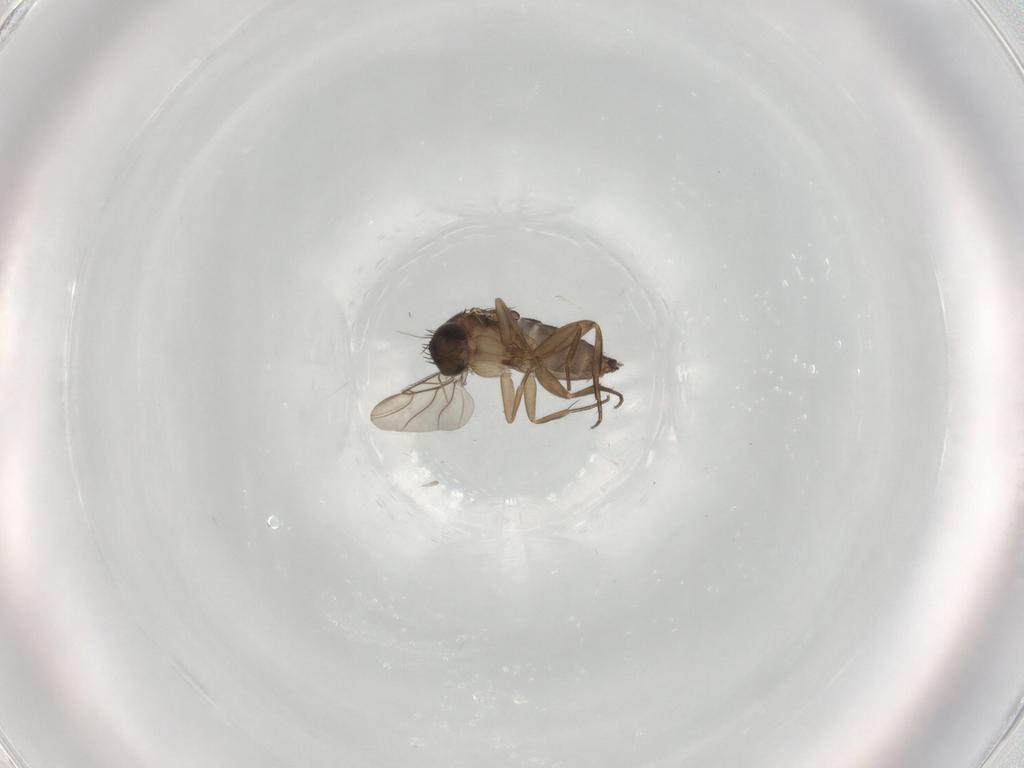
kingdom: Animalia
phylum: Arthropoda
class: Insecta
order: Diptera
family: Phoridae
